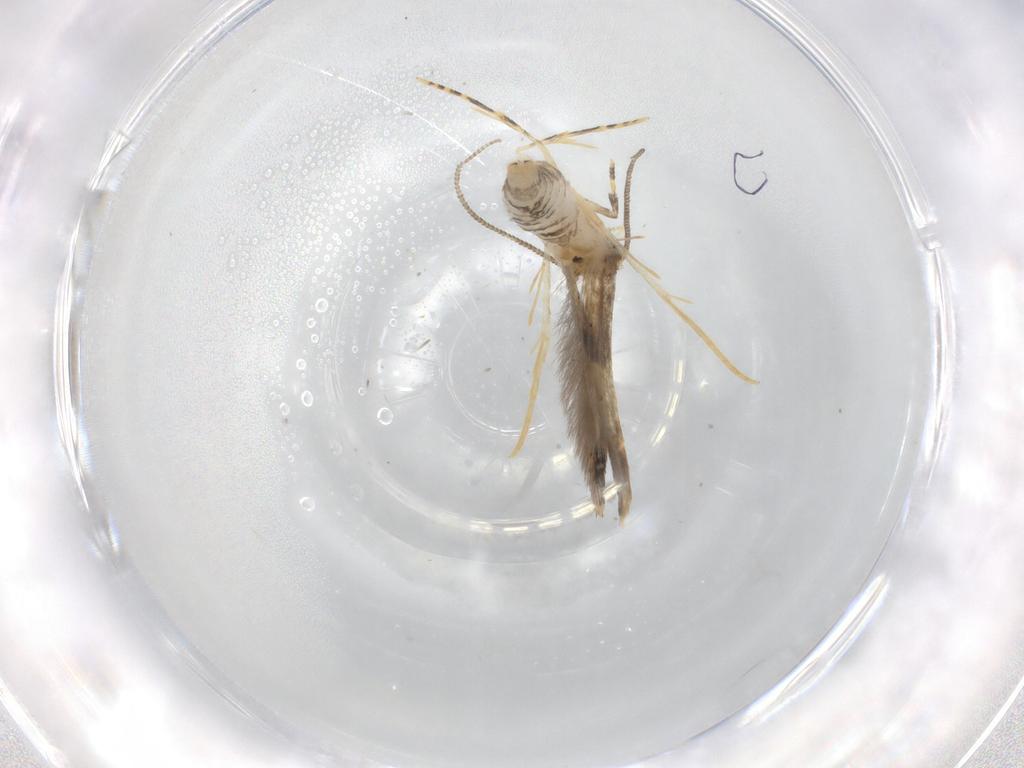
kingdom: Animalia
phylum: Arthropoda
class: Insecta
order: Lepidoptera
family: Tineidae
